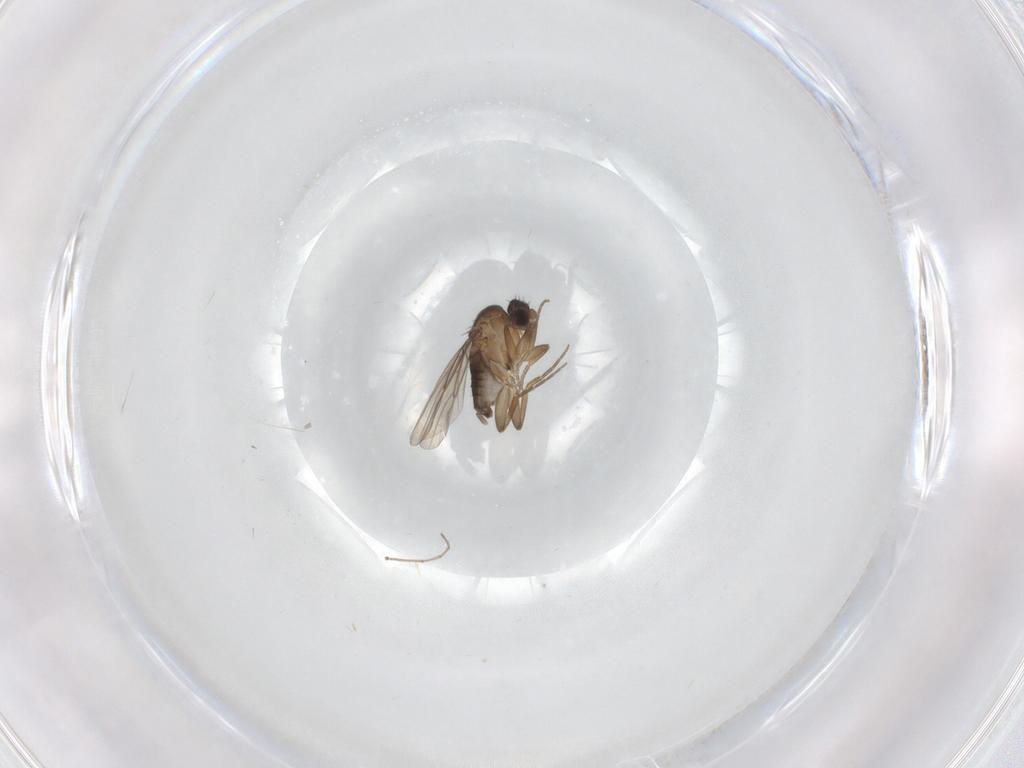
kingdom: Animalia
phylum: Arthropoda
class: Insecta
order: Diptera
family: Chironomidae
